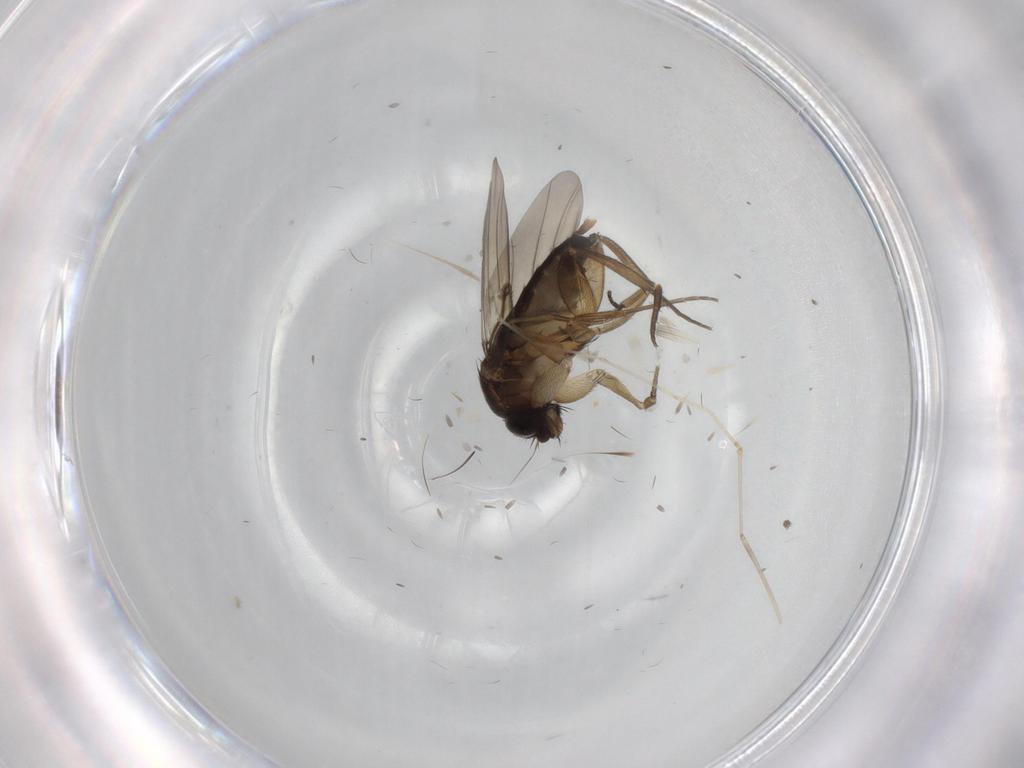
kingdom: Animalia
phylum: Arthropoda
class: Insecta
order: Diptera
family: Phoridae
